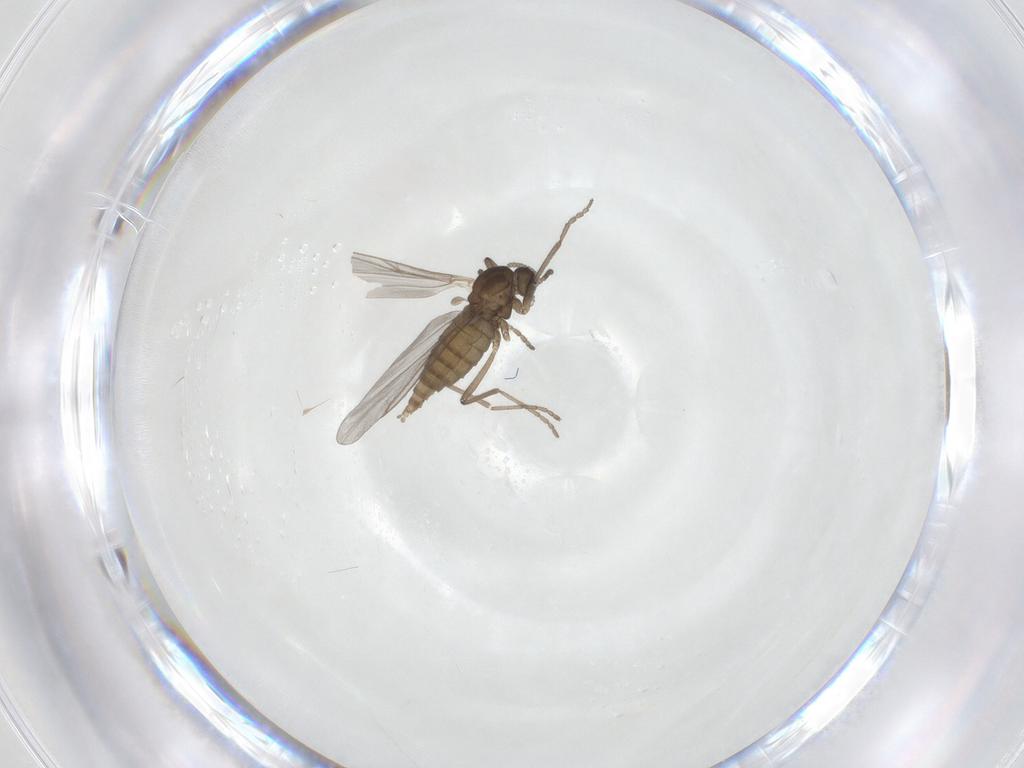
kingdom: Animalia
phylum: Arthropoda
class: Insecta
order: Diptera
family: Cecidomyiidae
